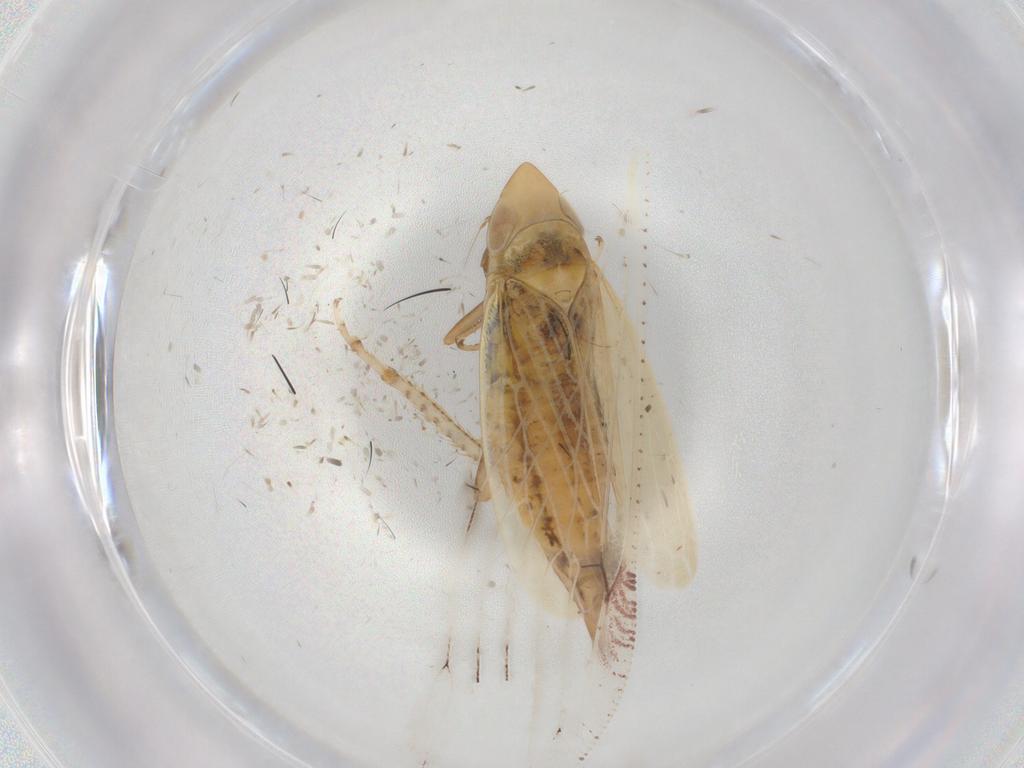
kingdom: Animalia
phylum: Arthropoda
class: Insecta
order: Hemiptera
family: Cicadellidae
